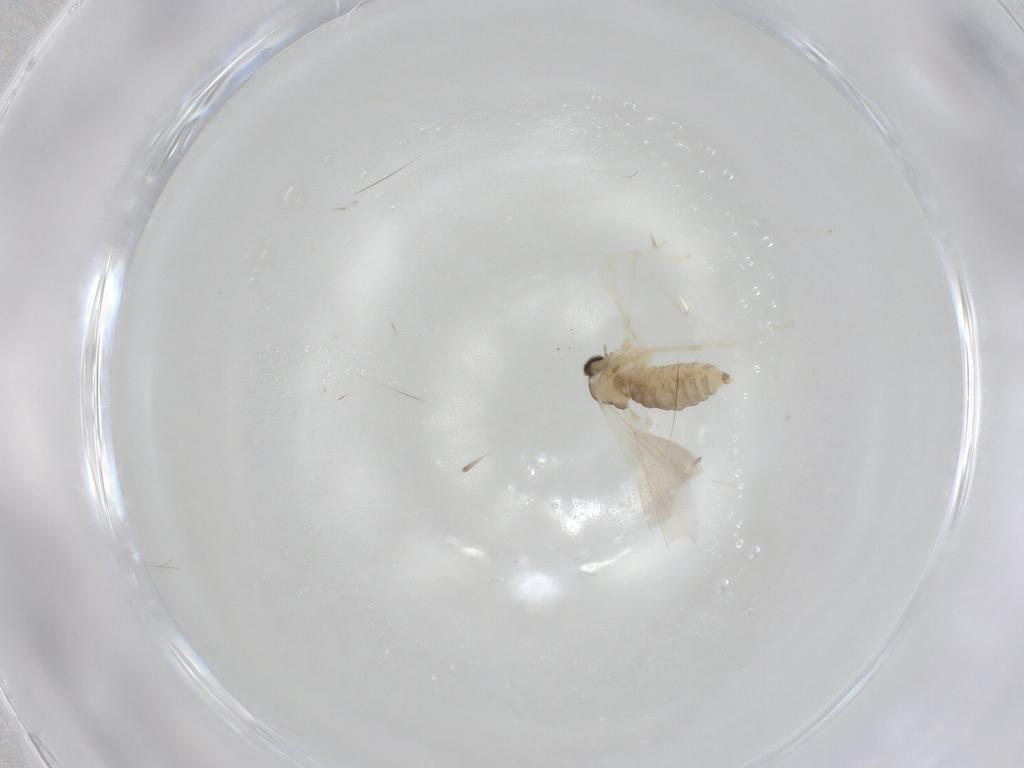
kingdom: Animalia
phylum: Arthropoda
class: Insecta
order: Diptera
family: Cecidomyiidae
